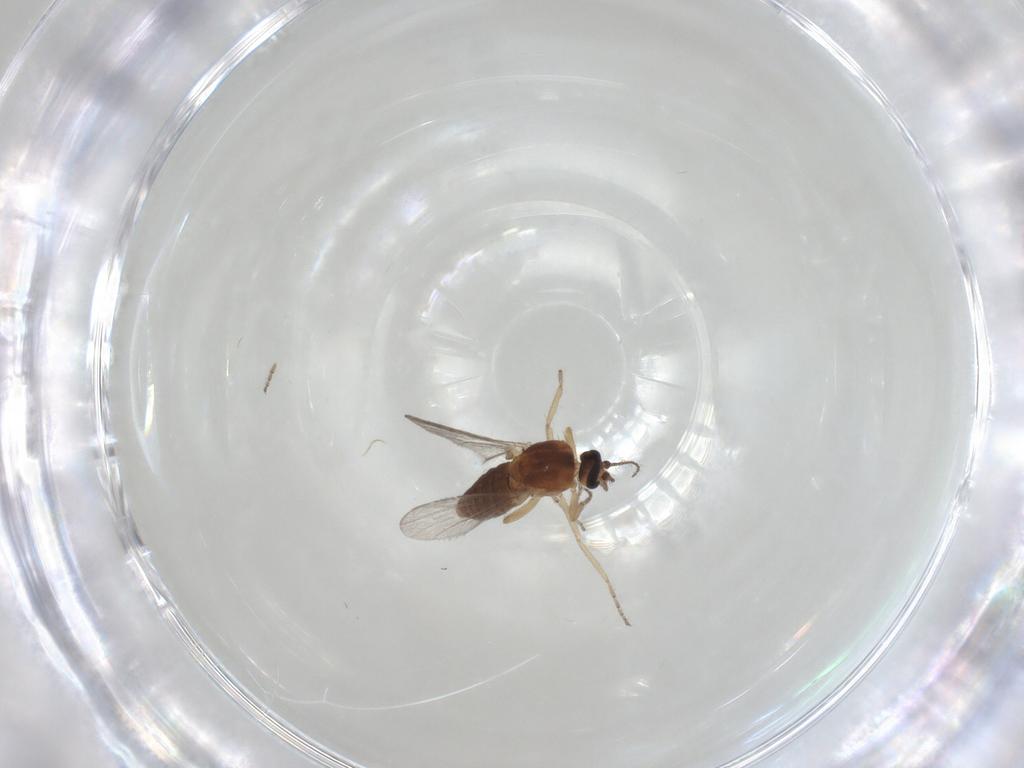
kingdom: Animalia
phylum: Arthropoda
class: Insecta
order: Diptera
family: Ceratopogonidae
